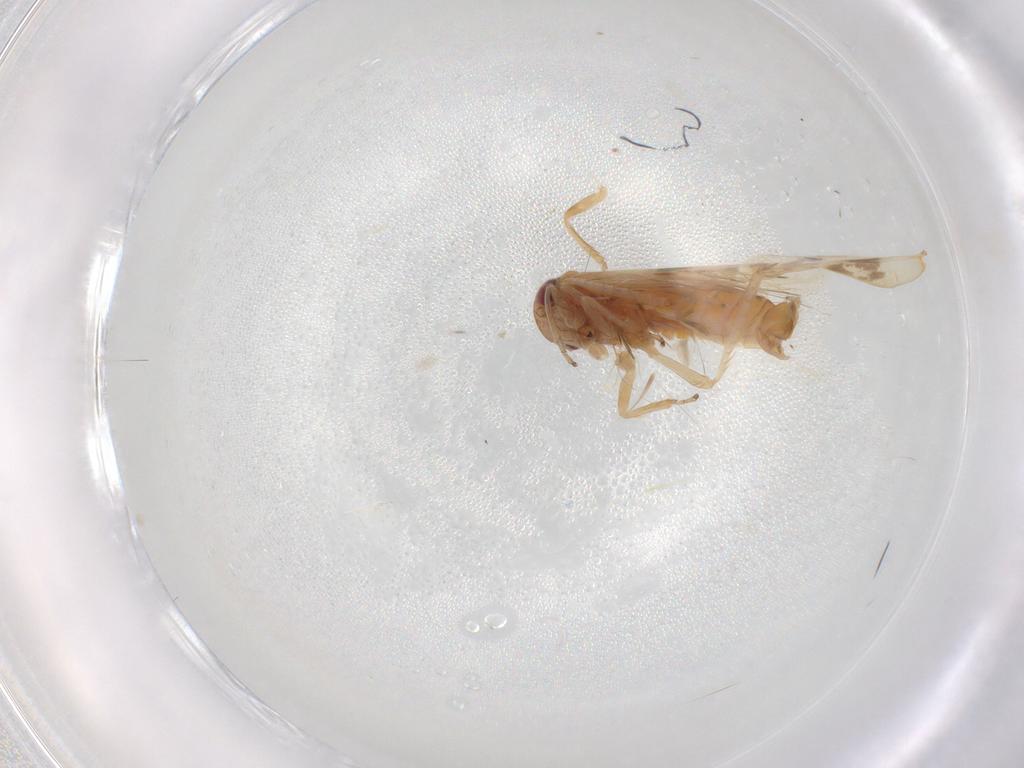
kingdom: Animalia
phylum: Arthropoda
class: Insecta
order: Hemiptera
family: Cicadellidae
